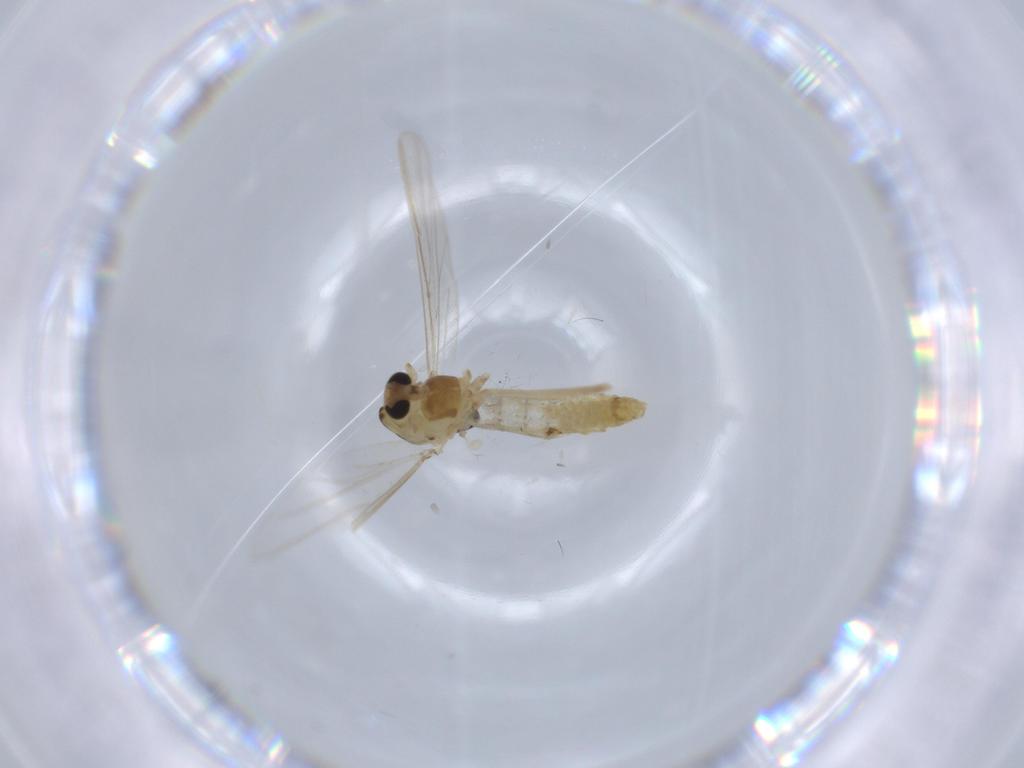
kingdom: Animalia
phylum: Arthropoda
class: Insecta
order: Diptera
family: Chironomidae
